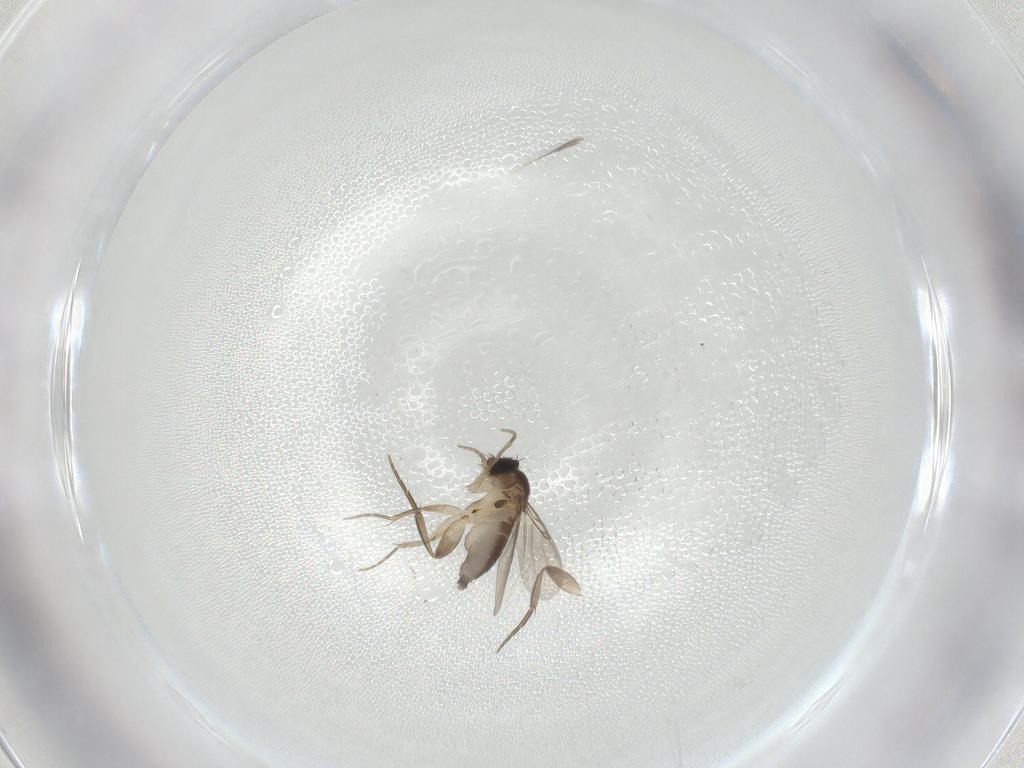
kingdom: Animalia
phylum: Arthropoda
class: Insecta
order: Diptera
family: Phoridae
